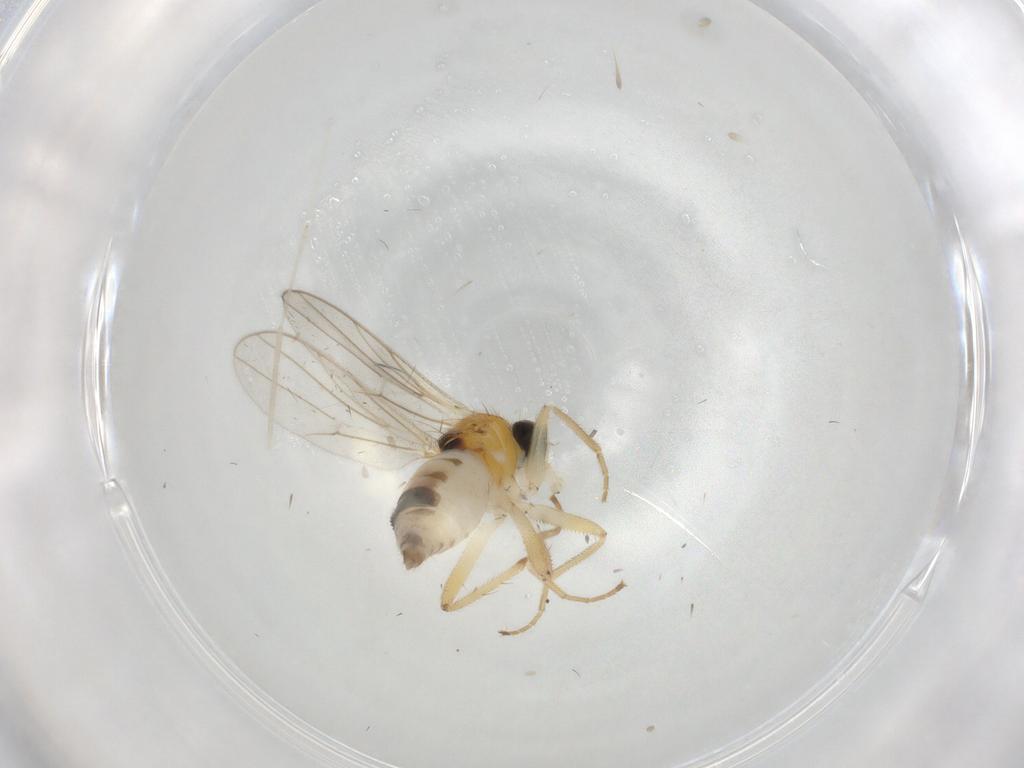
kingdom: Animalia
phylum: Arthropoda
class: Insecta
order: Diptera
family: Hybotidae
